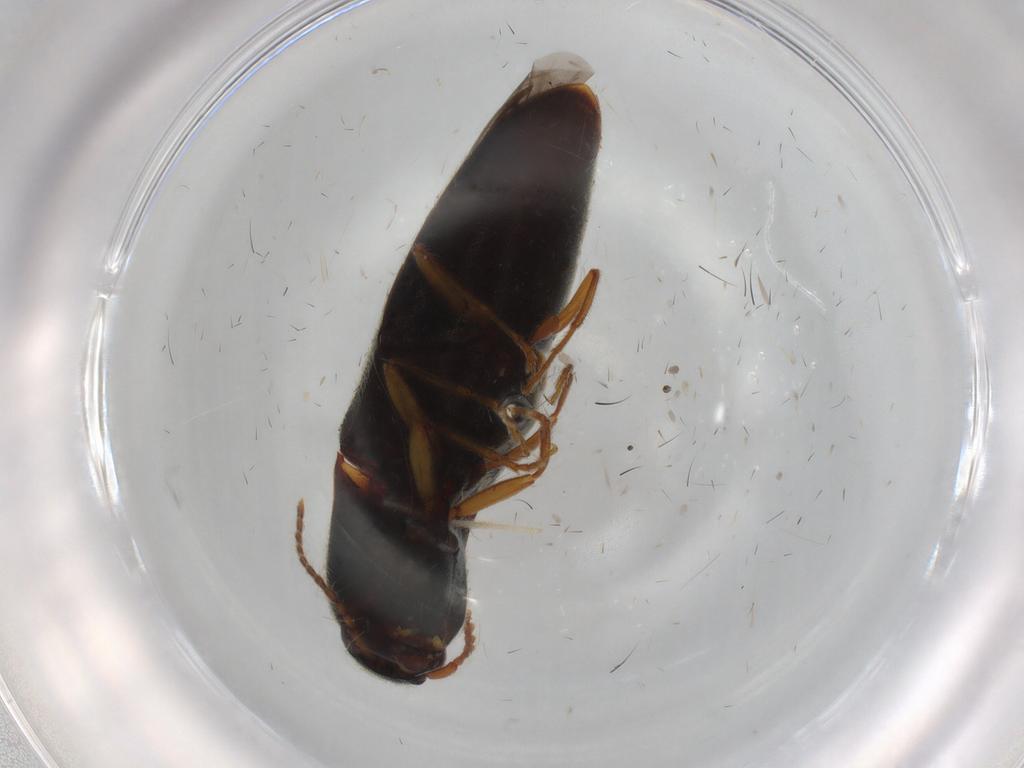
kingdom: Animalia
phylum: Arthropoda
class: Insecta
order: Coleoptera
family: Elateridae
